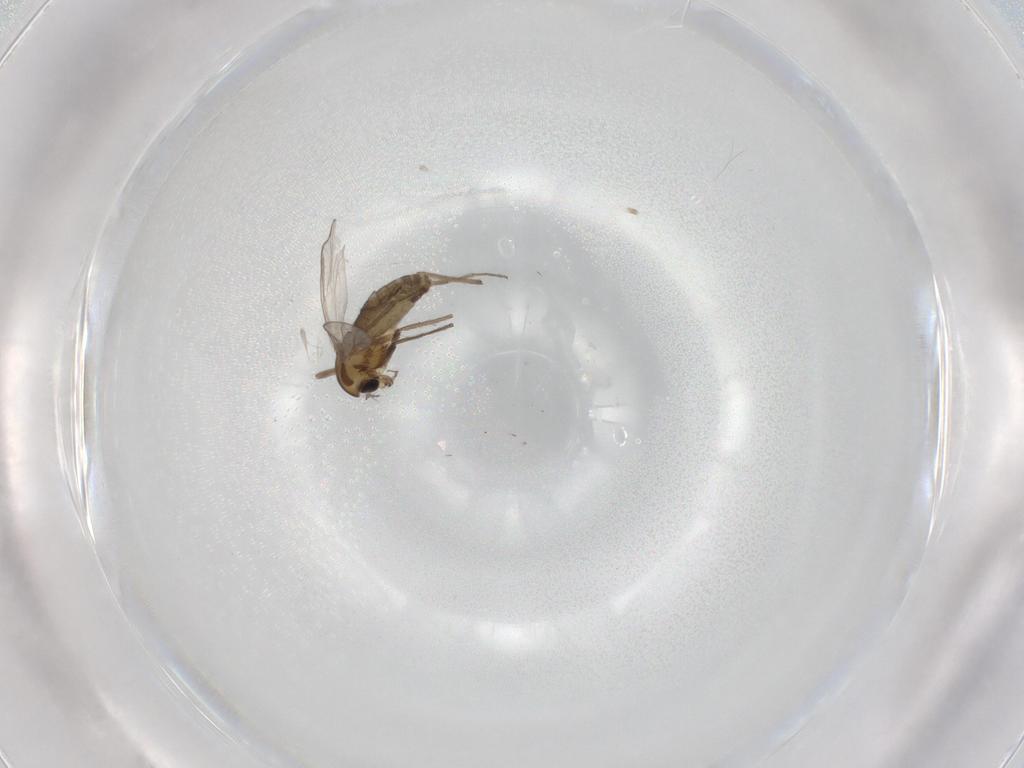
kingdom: Animalia
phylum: Arthropoda
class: Insecta
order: Diptera
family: Chironomidae
